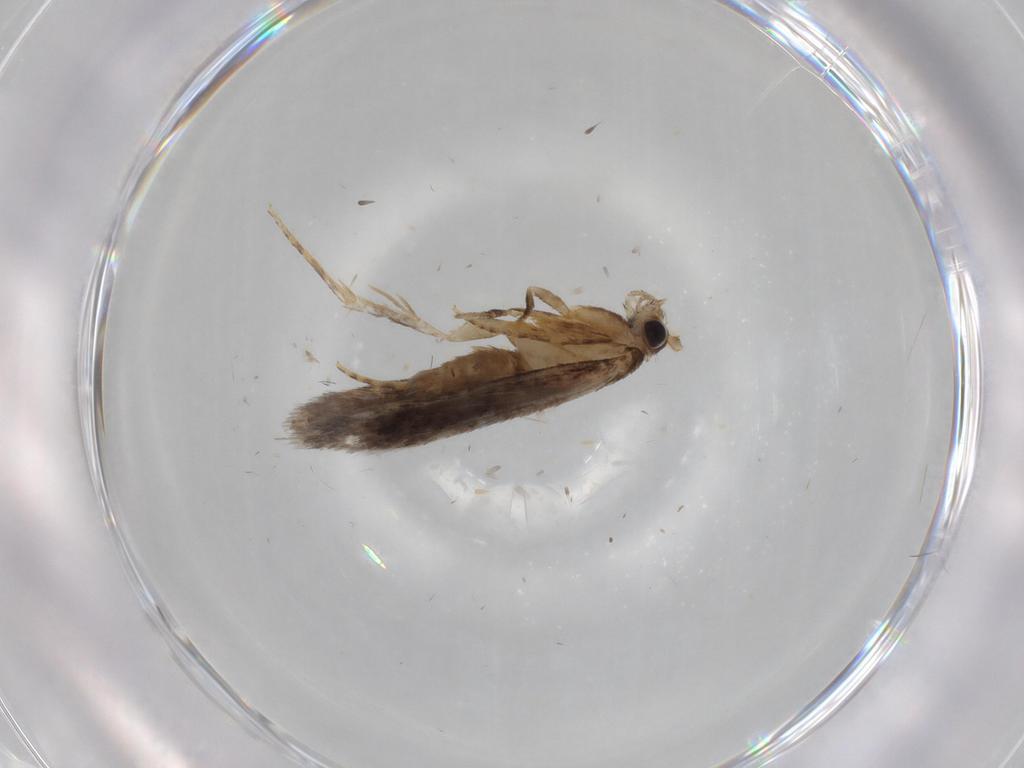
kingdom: Animalia
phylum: Arthropoda
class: Insecta
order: Lepidoptera
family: Tineidae
